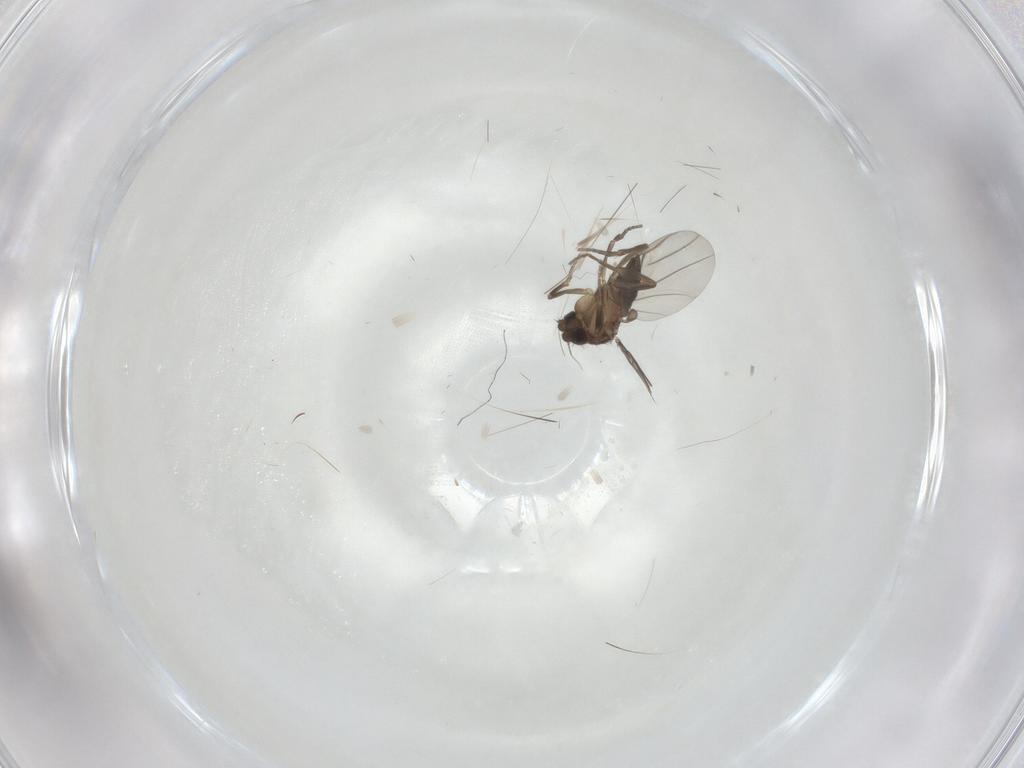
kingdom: Animalia
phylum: Arthropoda
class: Insecta
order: Diptera
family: Phoridae
